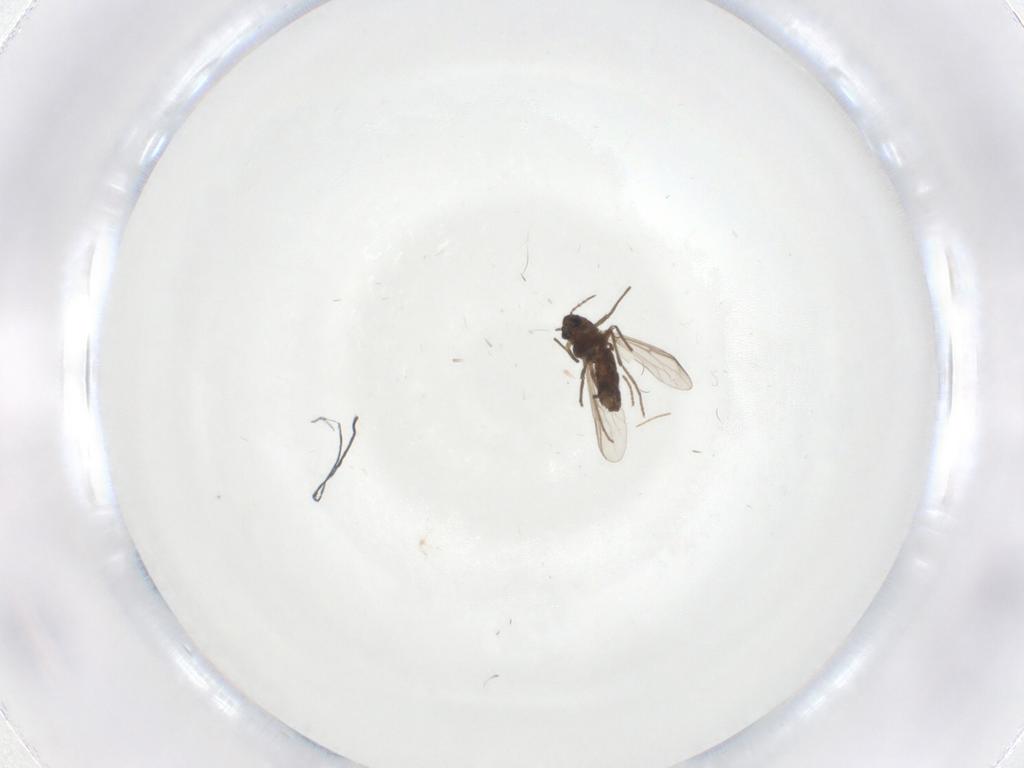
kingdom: Animalia
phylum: Arthropoda
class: Insecta
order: Diptera
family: Chironomidae
